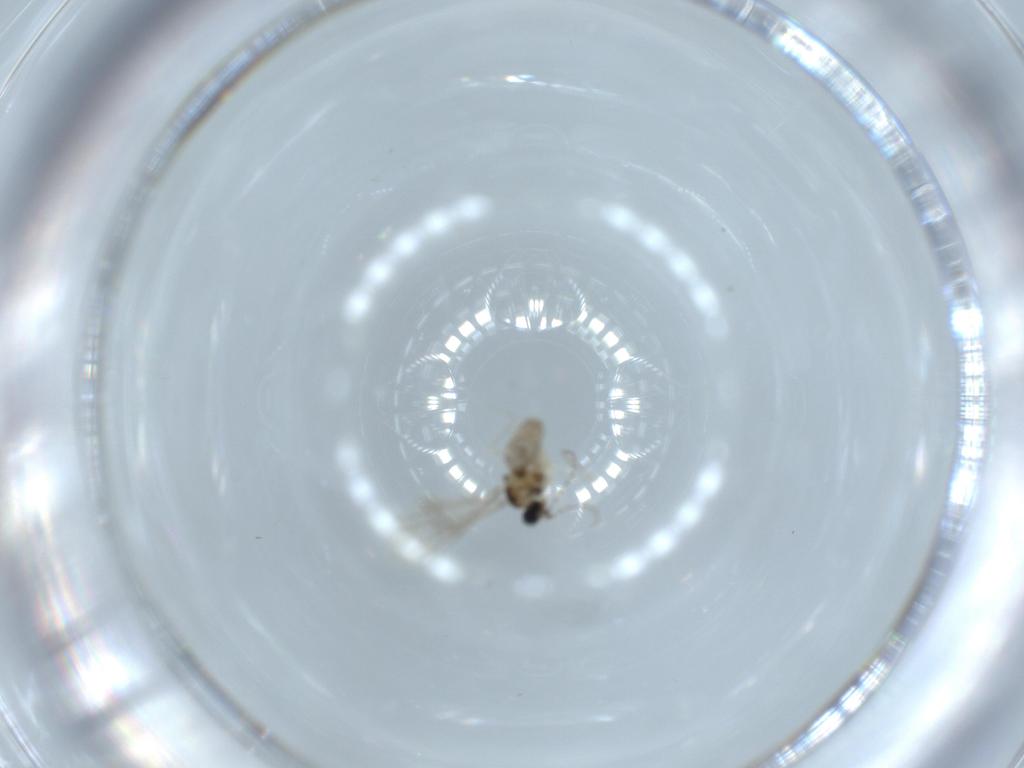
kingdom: Animalia
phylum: Arthropoda
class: Insecta
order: Diptera
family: Cecidomyiidae
